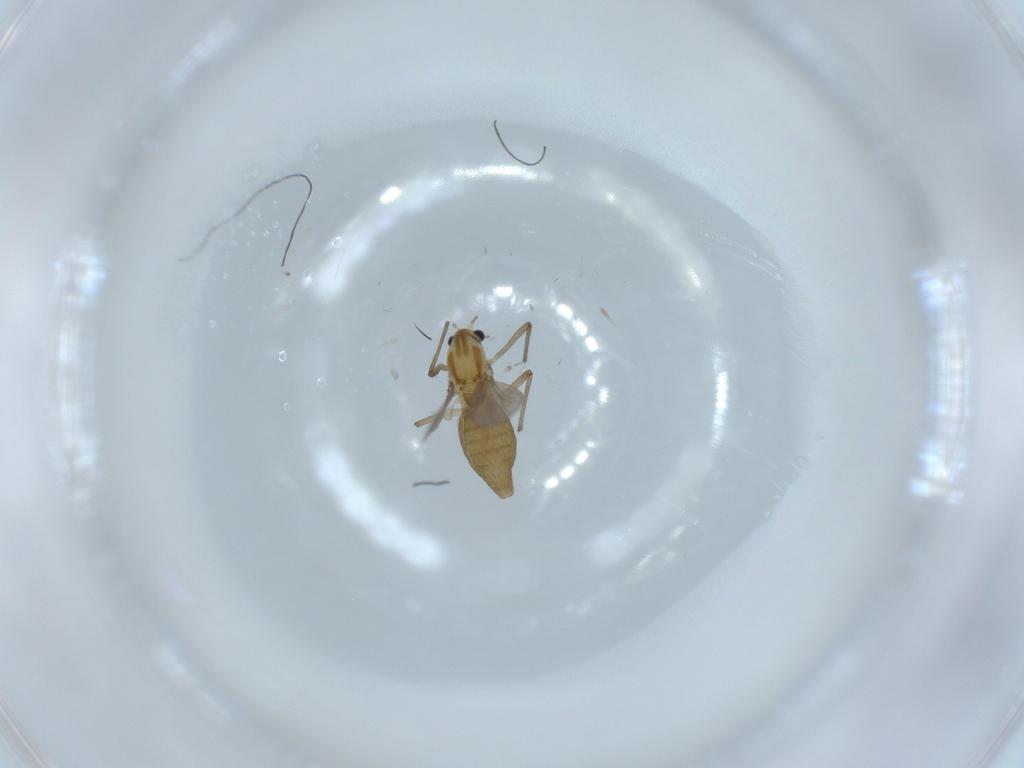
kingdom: Animalia
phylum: Arthropoda
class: Insecta
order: Diptera
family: Chironomidae
